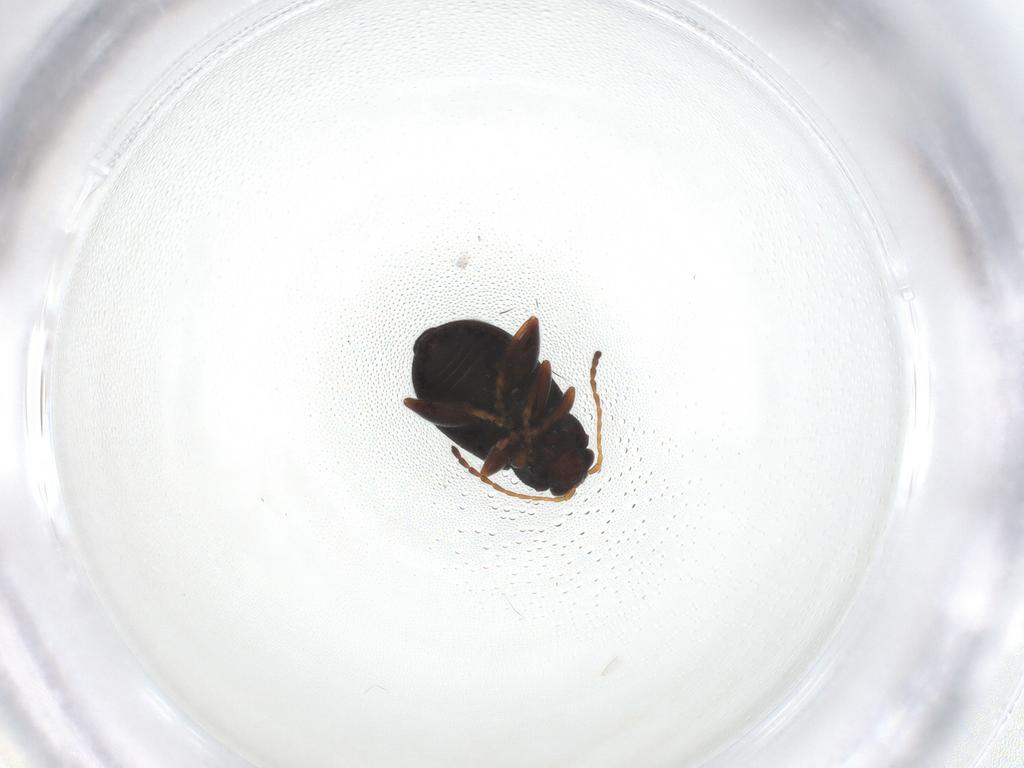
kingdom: Animalia
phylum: Arthropoda
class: Insecta
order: Coleoptera
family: Chrysomelidae
